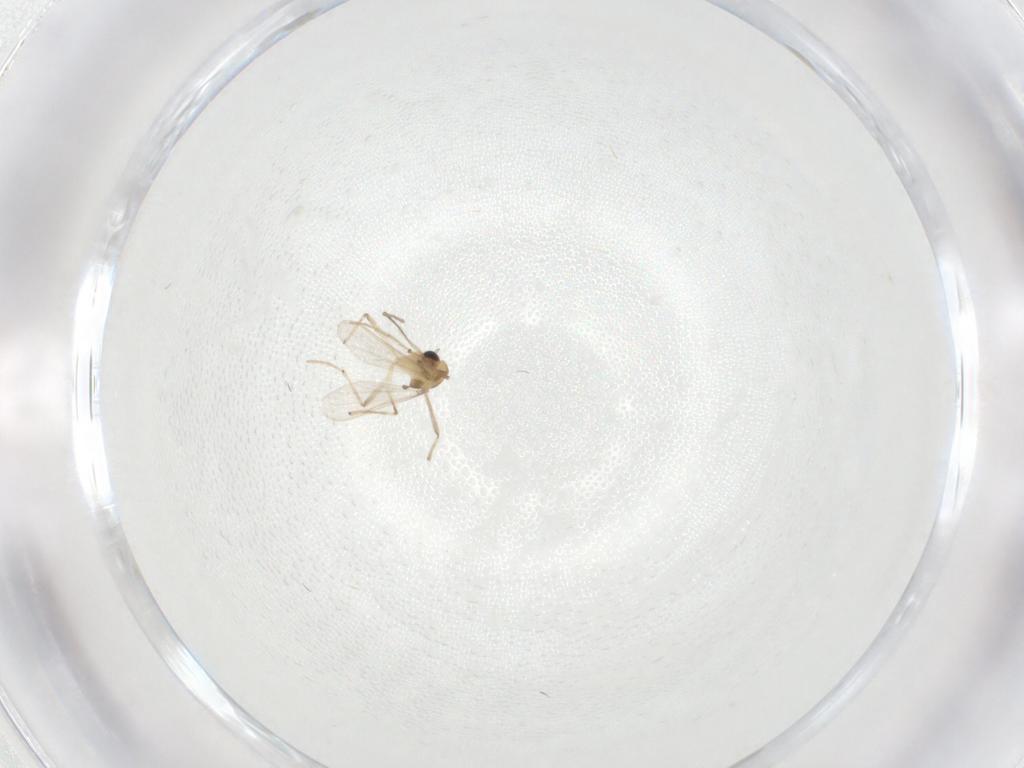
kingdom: Animalia
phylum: Arthropoda
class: Insecta
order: Diptera
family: Chironomidae
